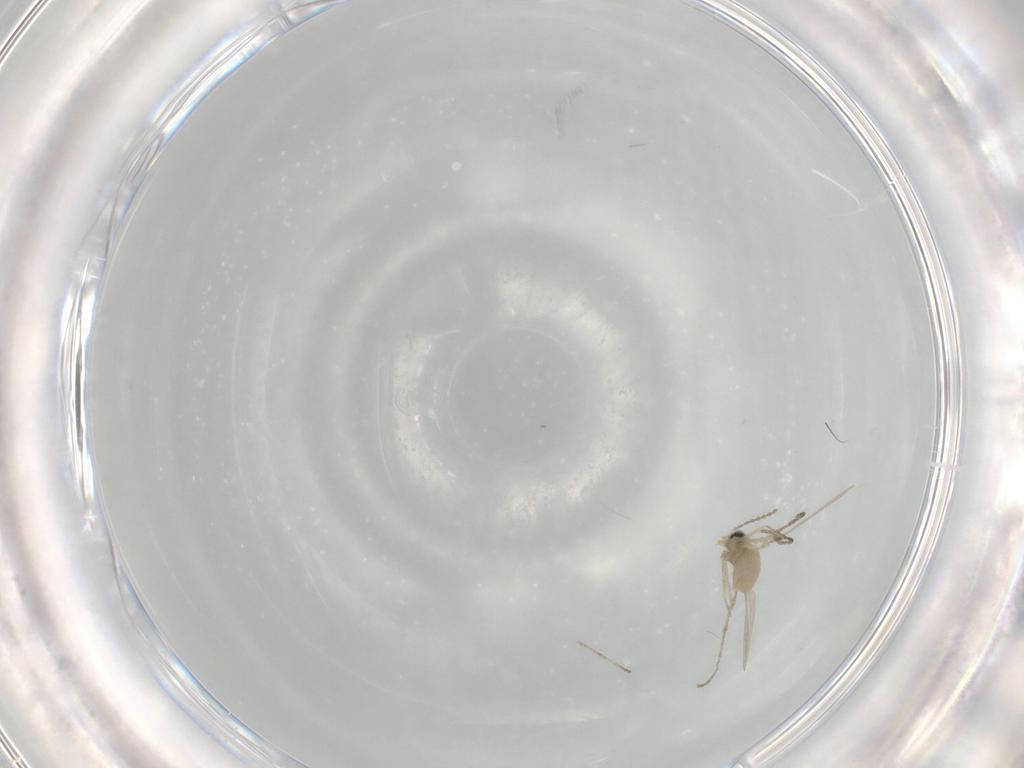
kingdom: Animalia
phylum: Arthropoda
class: Insecta
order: Diptera
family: Cecidomyiidae
